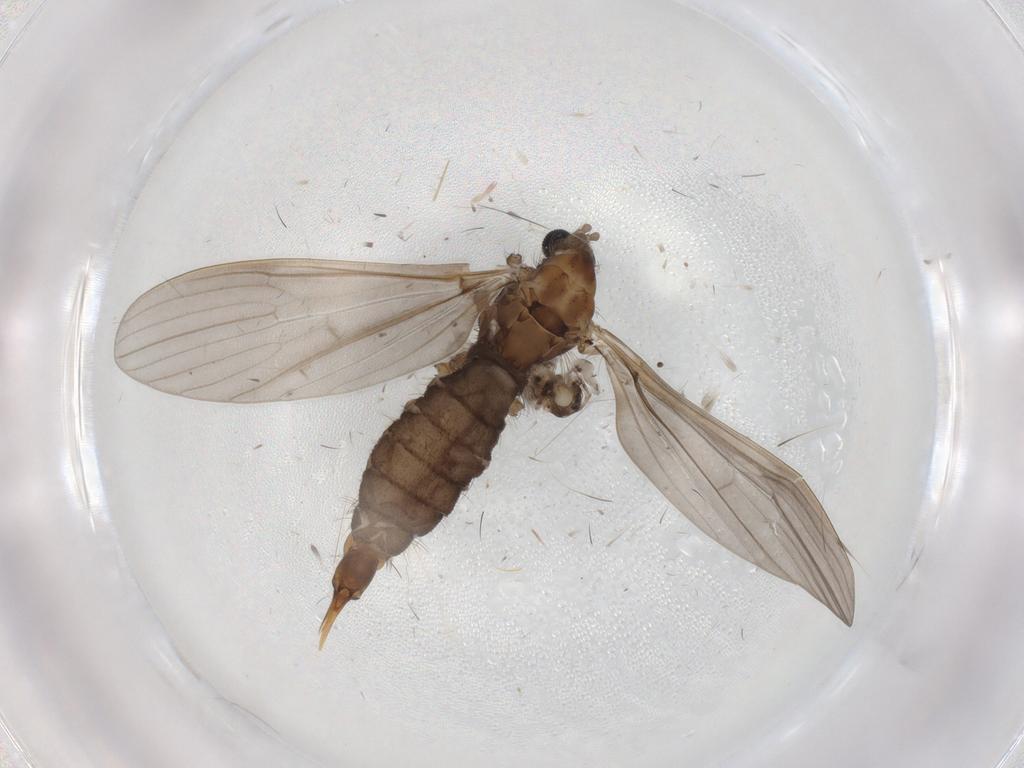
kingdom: Animalia
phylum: Arthropoda
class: Insecta
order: Diptera
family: Limoniidae
